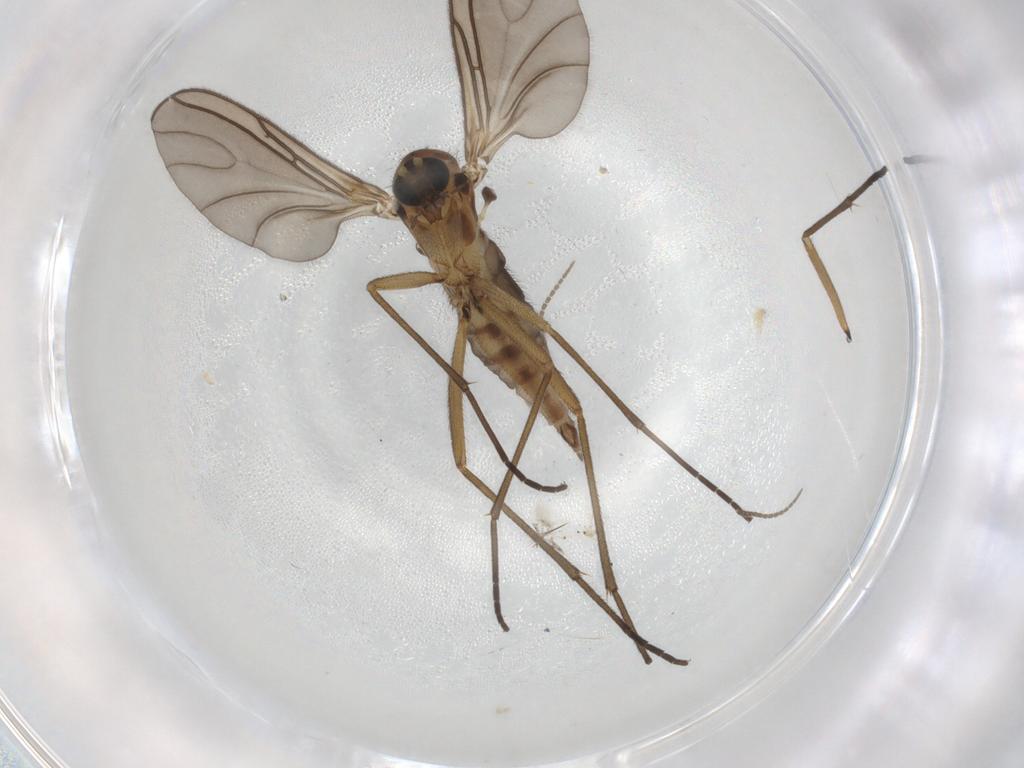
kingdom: Animalia
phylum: Arthropoda
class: Insecta
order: Diptera
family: Sciaridae
